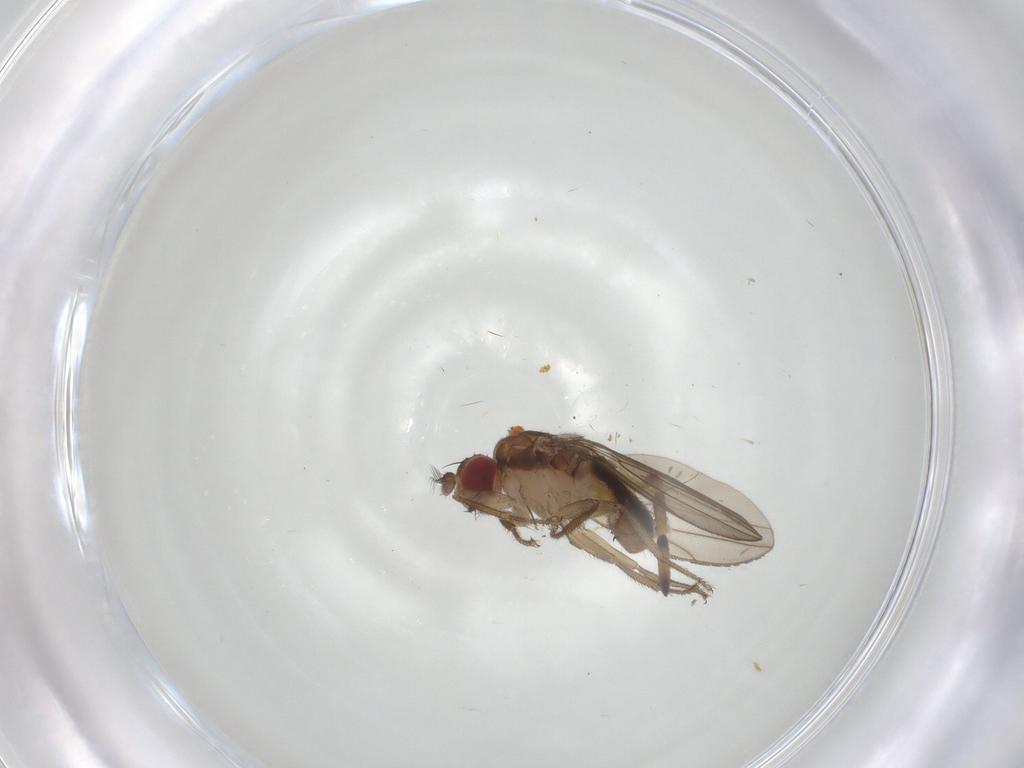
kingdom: Animalia
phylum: Arthropoda
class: Insecta
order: Diptera
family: Drosophilidae
